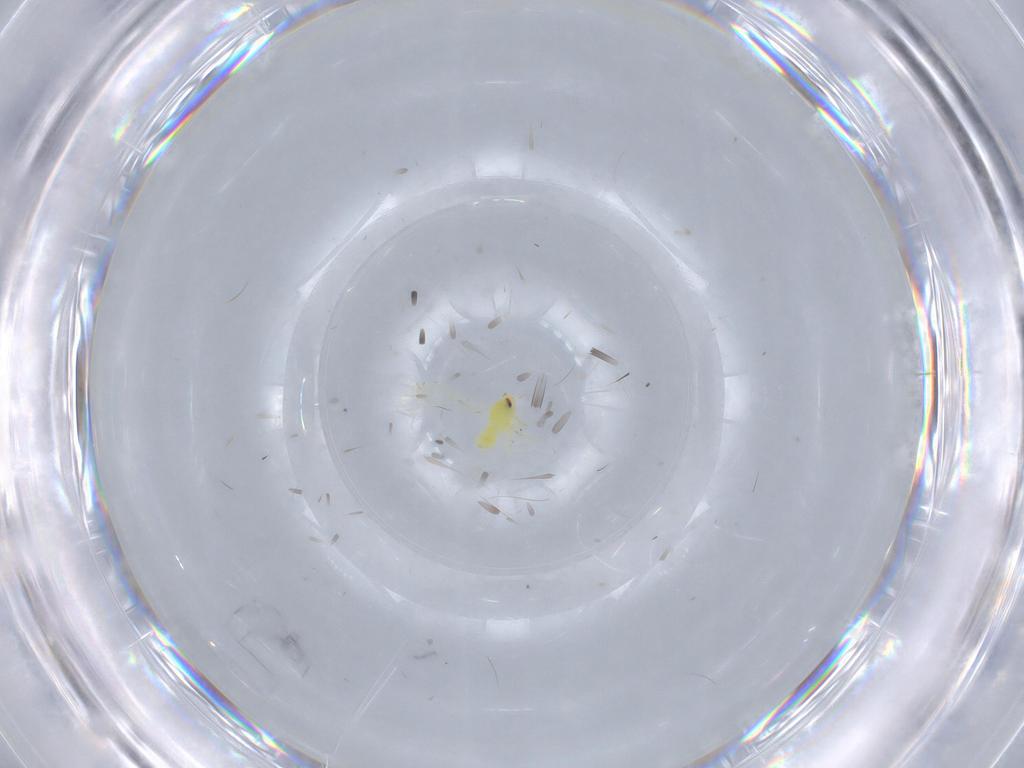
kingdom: Animalia
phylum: Arthropoda
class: Insecta
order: Hemiptera
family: Aleyrodidae
